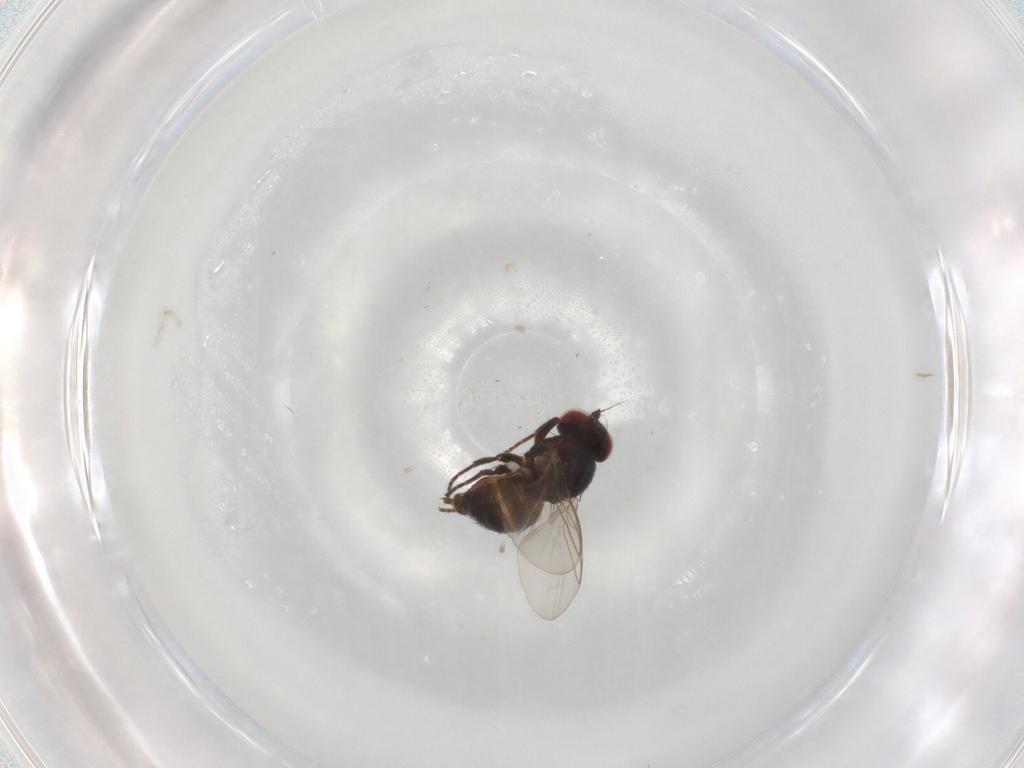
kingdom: Animalia
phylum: Arthropoda
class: Insecta
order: Diptera
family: Agromyzidae
